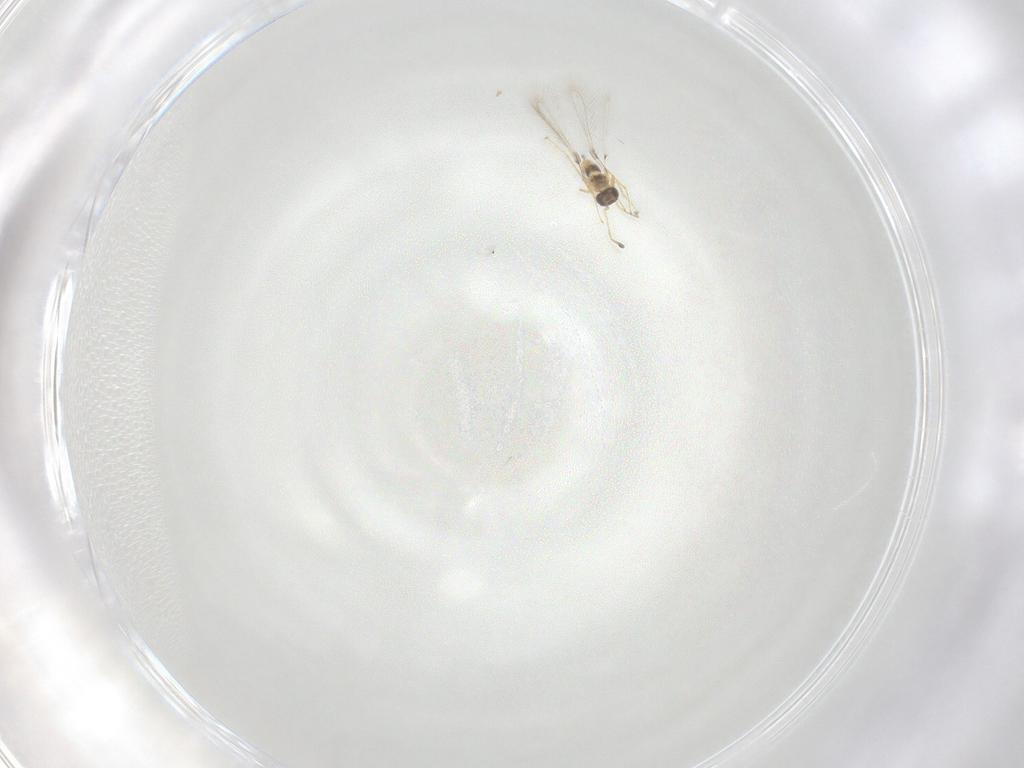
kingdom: Animalia
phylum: Arthropoda
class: Insecta
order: Hymenoptera
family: Mymaridae
